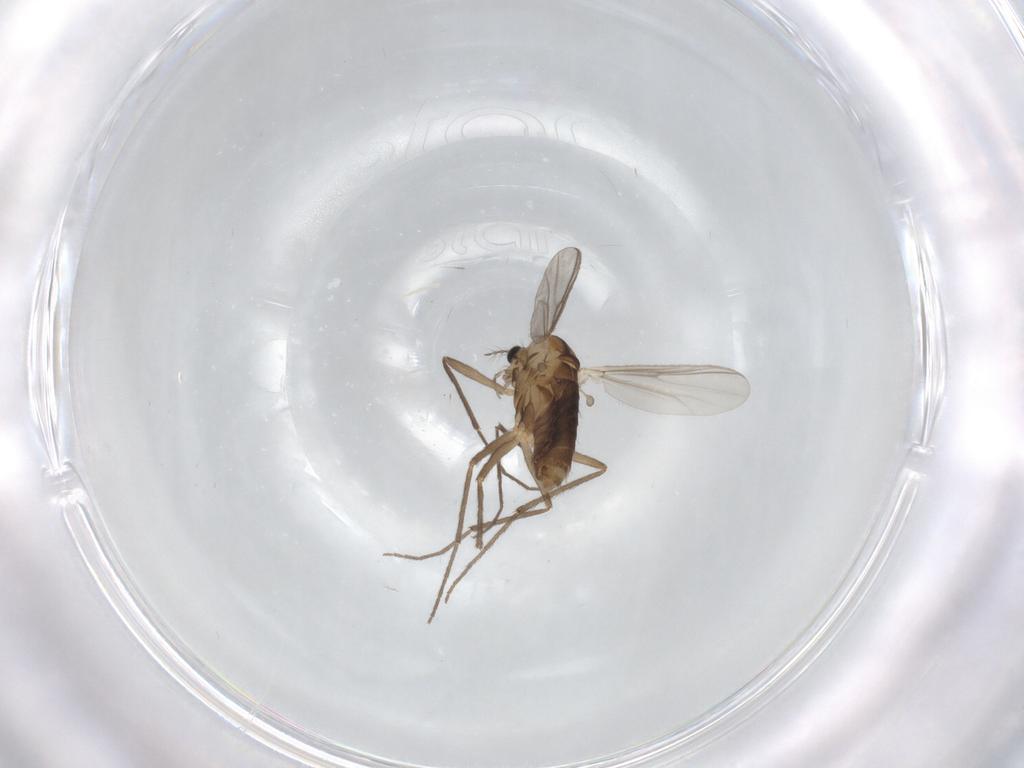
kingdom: Animalia
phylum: Arthropoda
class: Insecta
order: Diptera
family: Chironomidae
